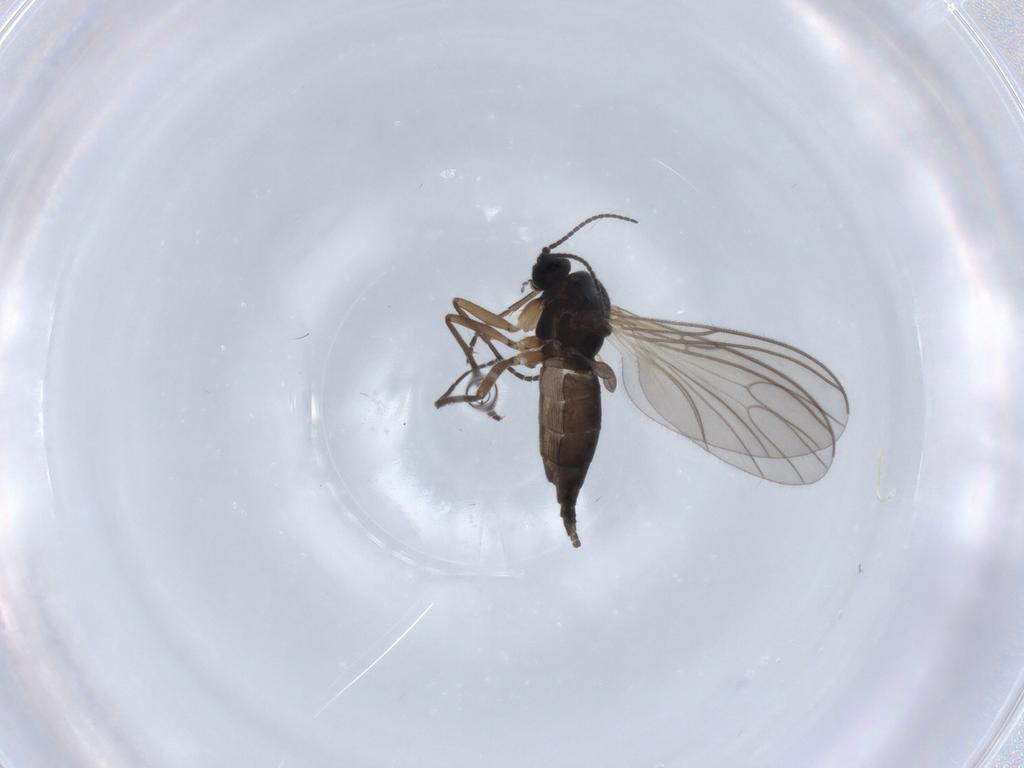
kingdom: Animalia
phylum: Arthropoda
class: Insecta
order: Diptera
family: Sciaridae
